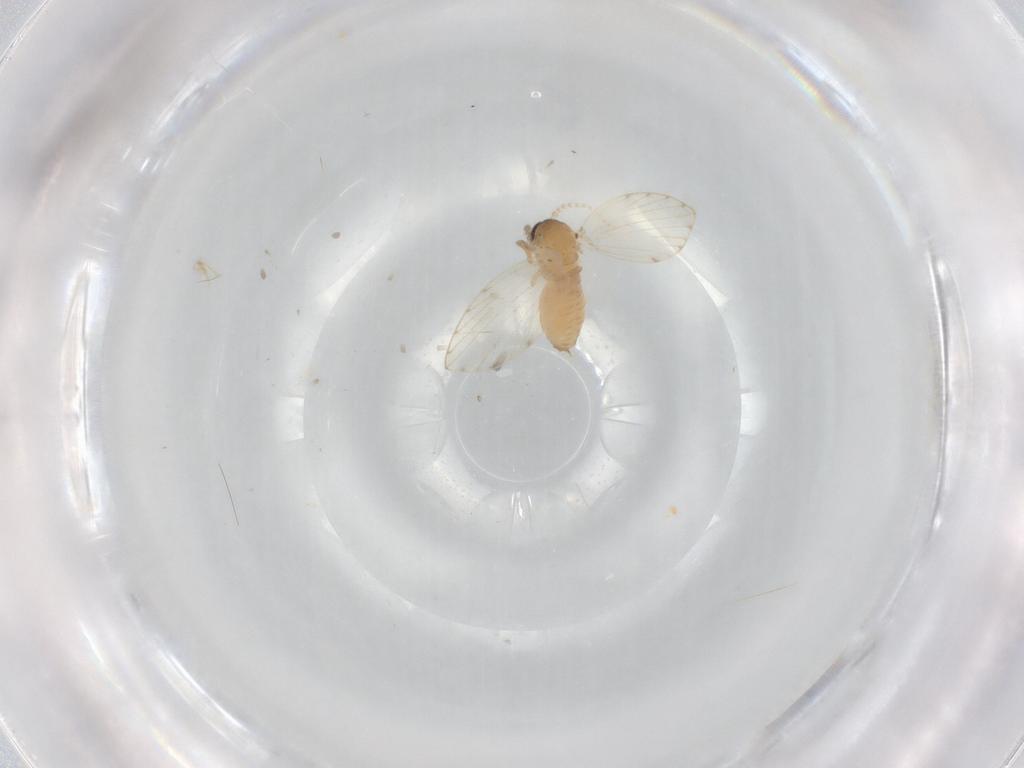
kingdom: Animalia
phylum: Arthropoda
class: Insecta
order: Diptera
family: Psychodidae
